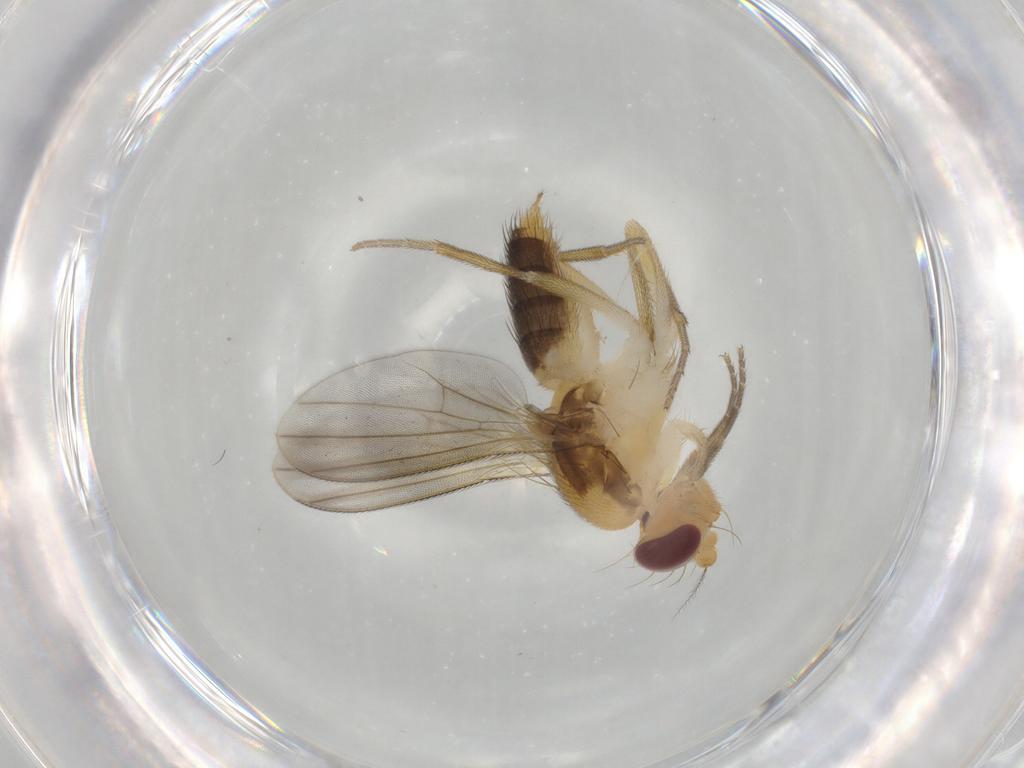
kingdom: Animalia
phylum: Arthropoda
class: Insecta
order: Diptera
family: Agromyzidae
